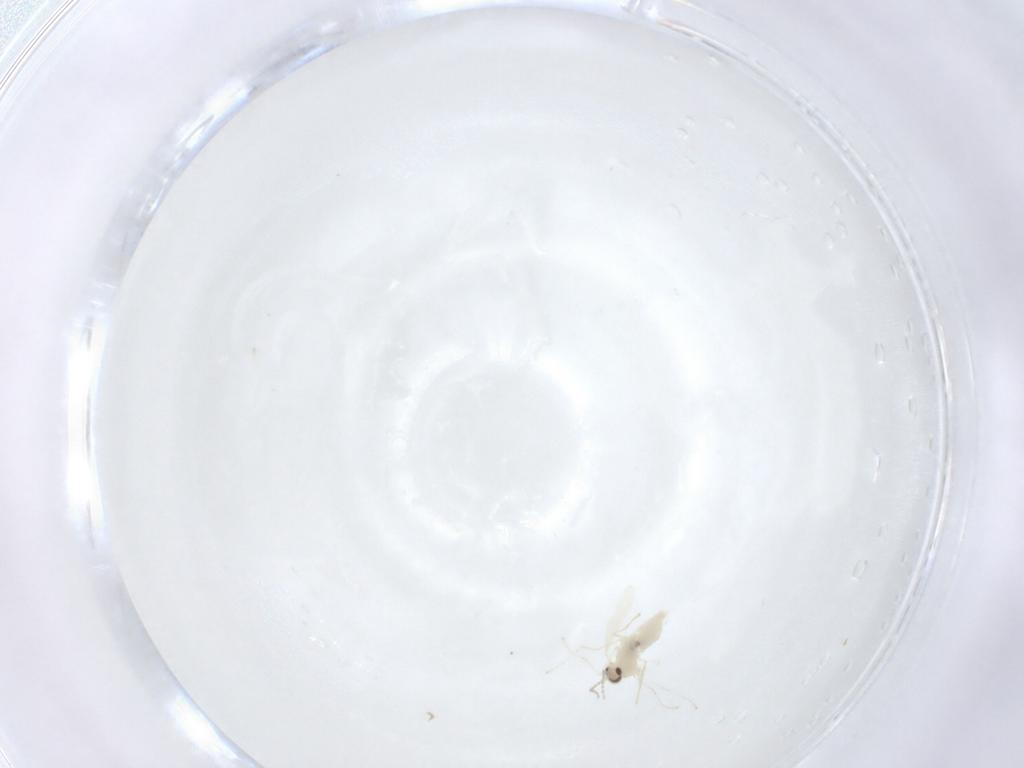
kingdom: Animalia
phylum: Arthropoda
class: Insecta
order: Diptera
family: Cecidomyiidae
